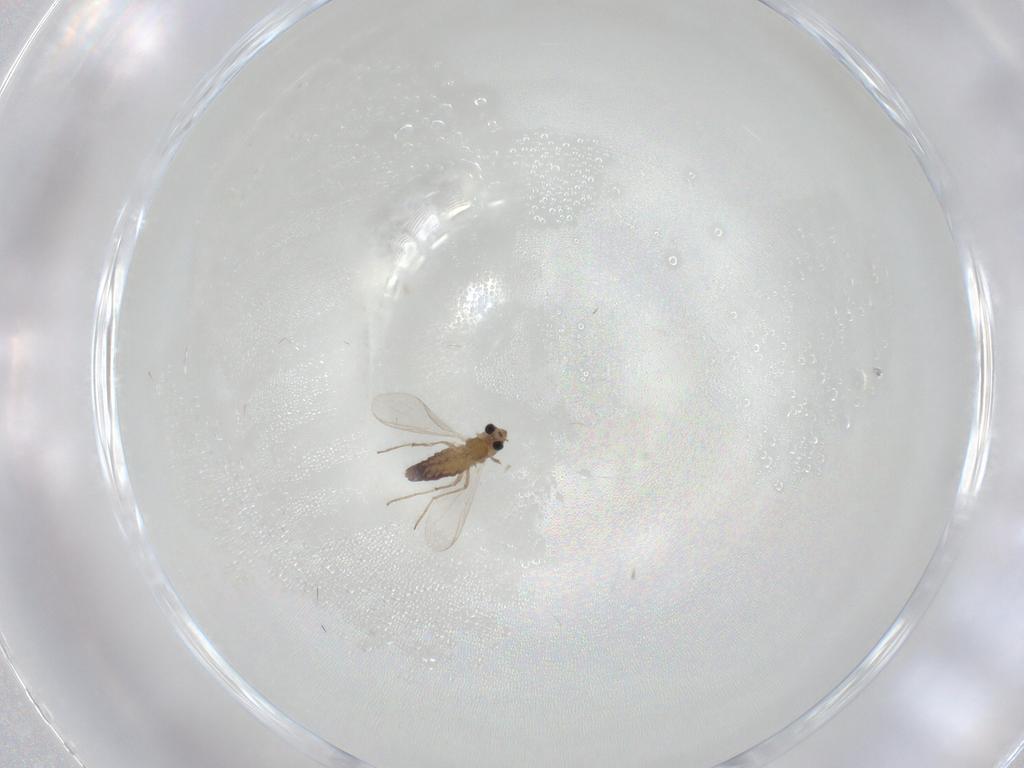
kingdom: Animalia
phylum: Arthropoda
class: Insecta
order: Diptera
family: Chironomidae
